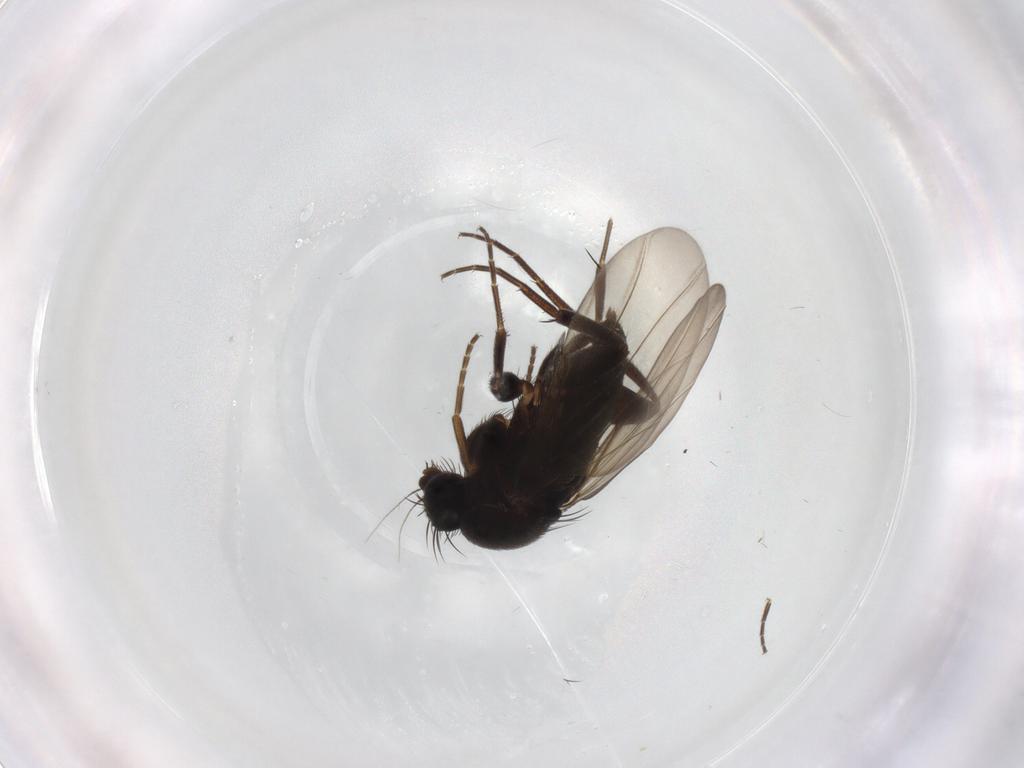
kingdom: Animalia
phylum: Arthropoda
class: Insecta
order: Diptera
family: Phoridae
